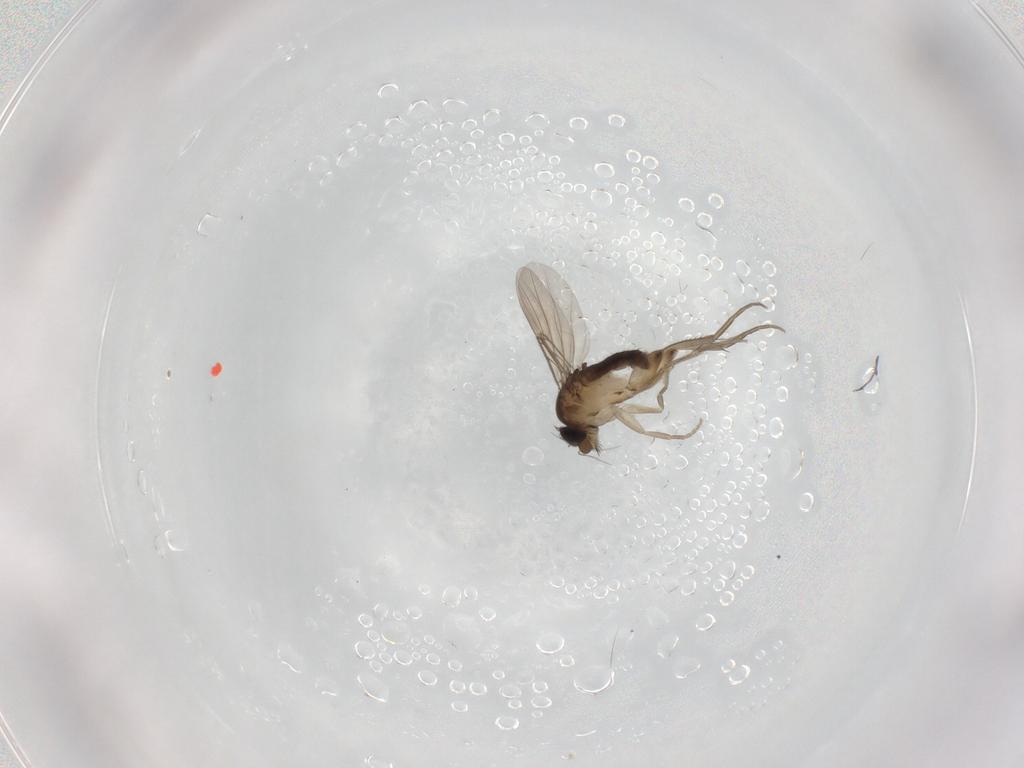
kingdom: Animalia
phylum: Arthropoda
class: Insecta
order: Diptera
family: Phoridae
